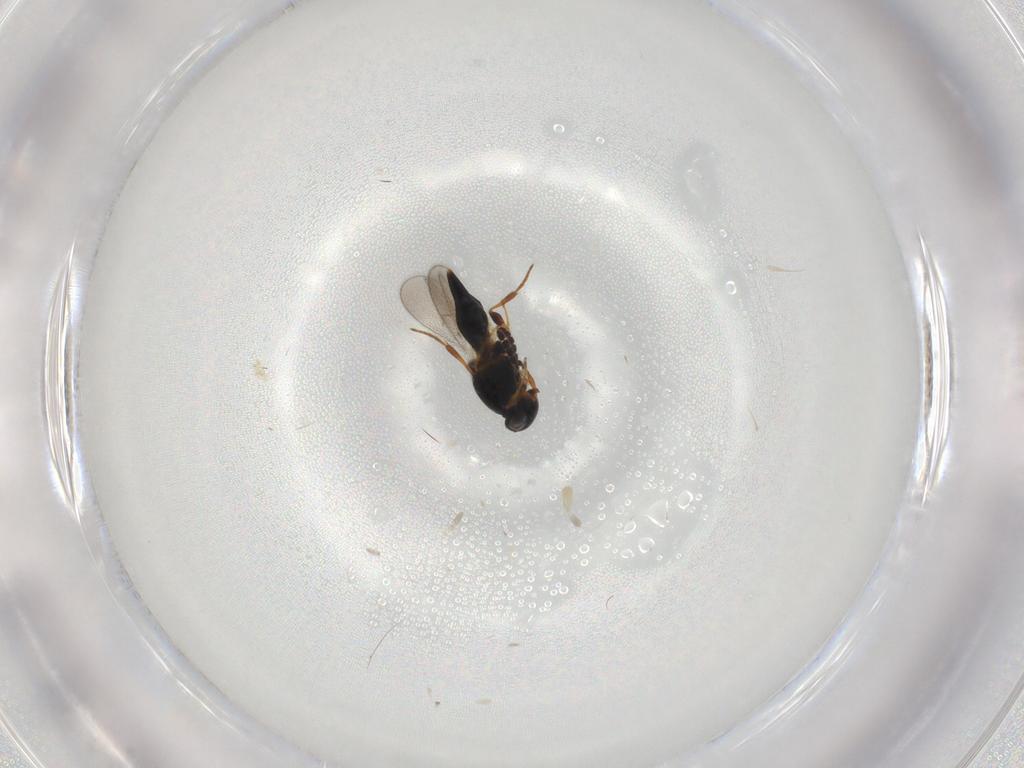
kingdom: Animalia
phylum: Arthropoda
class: Insecta
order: Hymenoptera
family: Platygastridae
